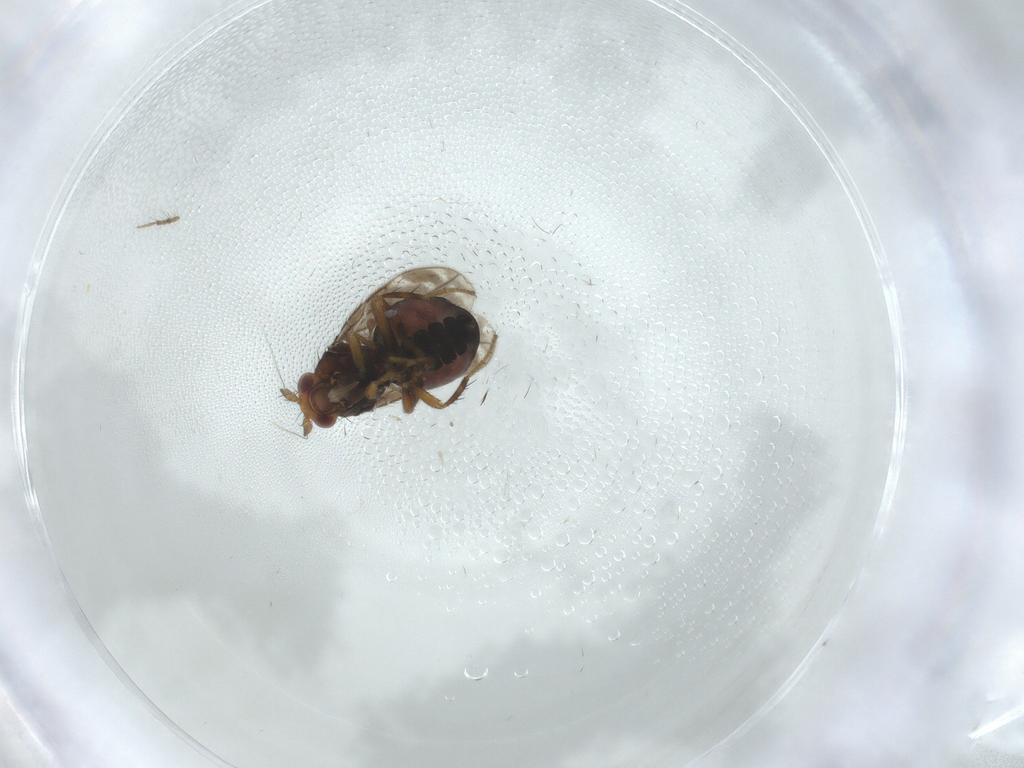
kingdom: Animalia
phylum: Arthropoda
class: Insecta
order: Diptera
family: Sphaeroceridae
